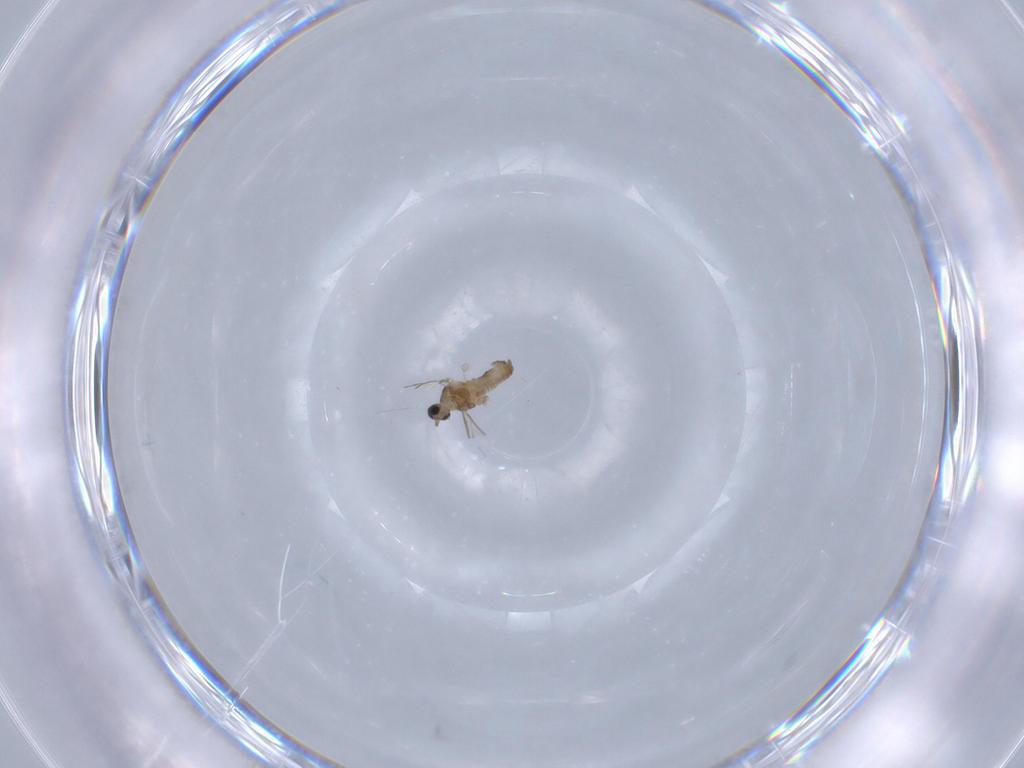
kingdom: Animalia
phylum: Arthropoda
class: Insecta
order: Diptera
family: Cecidomyiidae
